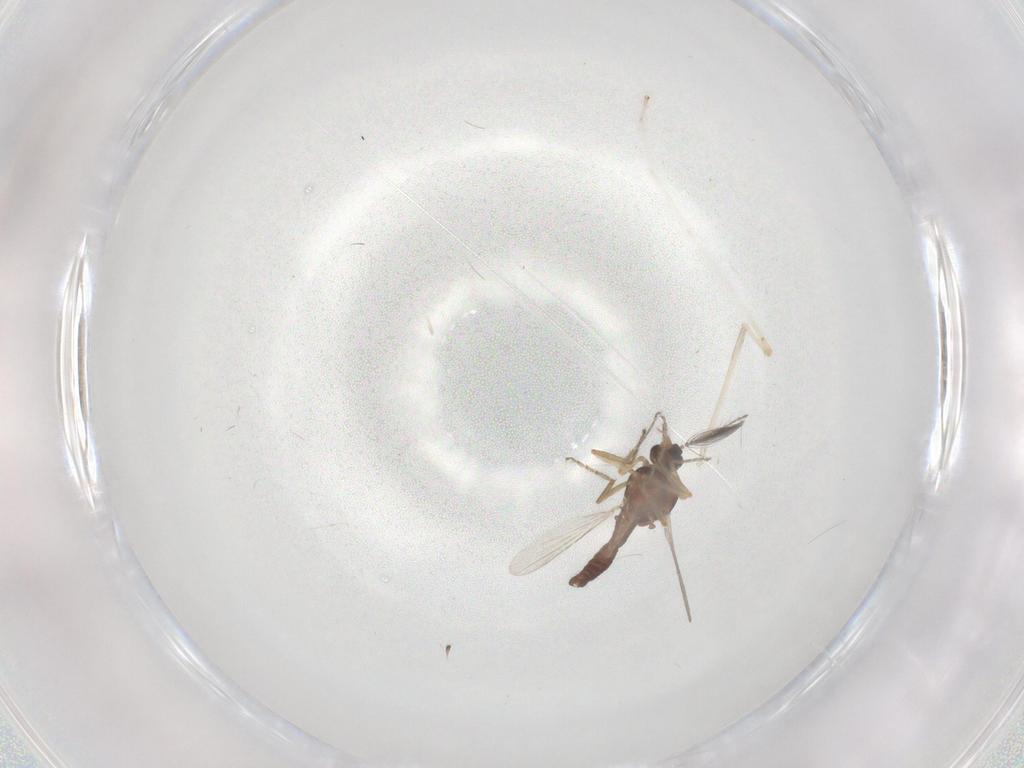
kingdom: Animalia
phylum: Arthropoda
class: Insecta
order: Diptera
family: Cecidomyiidae
